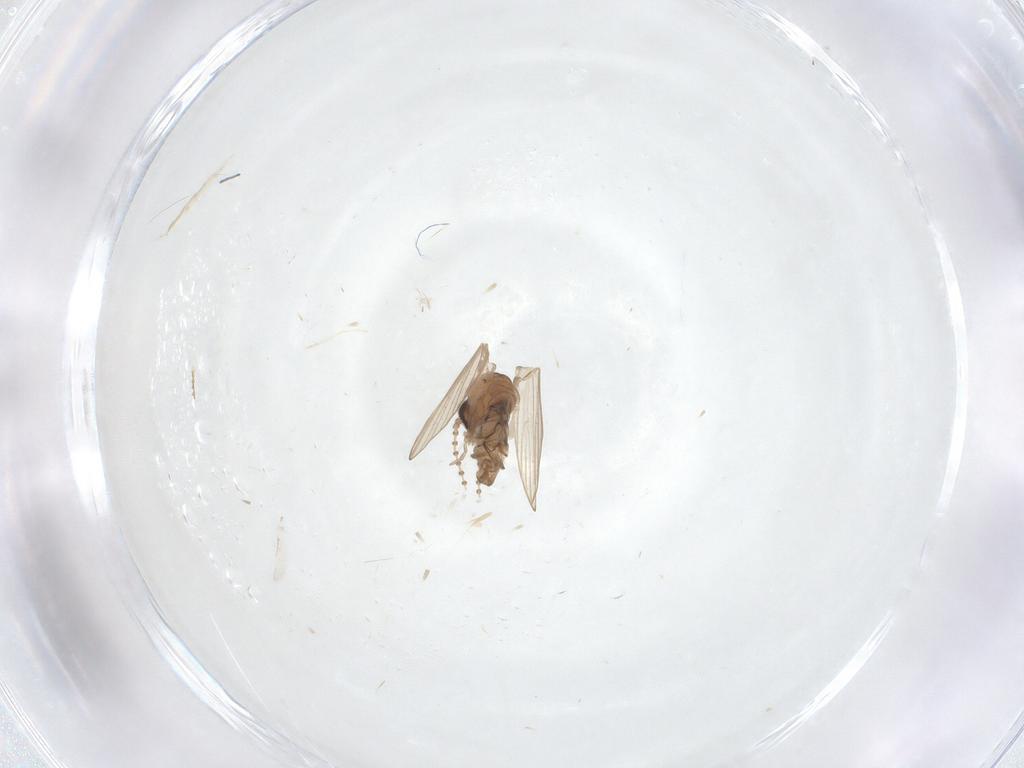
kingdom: Animalia
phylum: Arthropoda
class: Insecta
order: Diptera
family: Psychodidae
